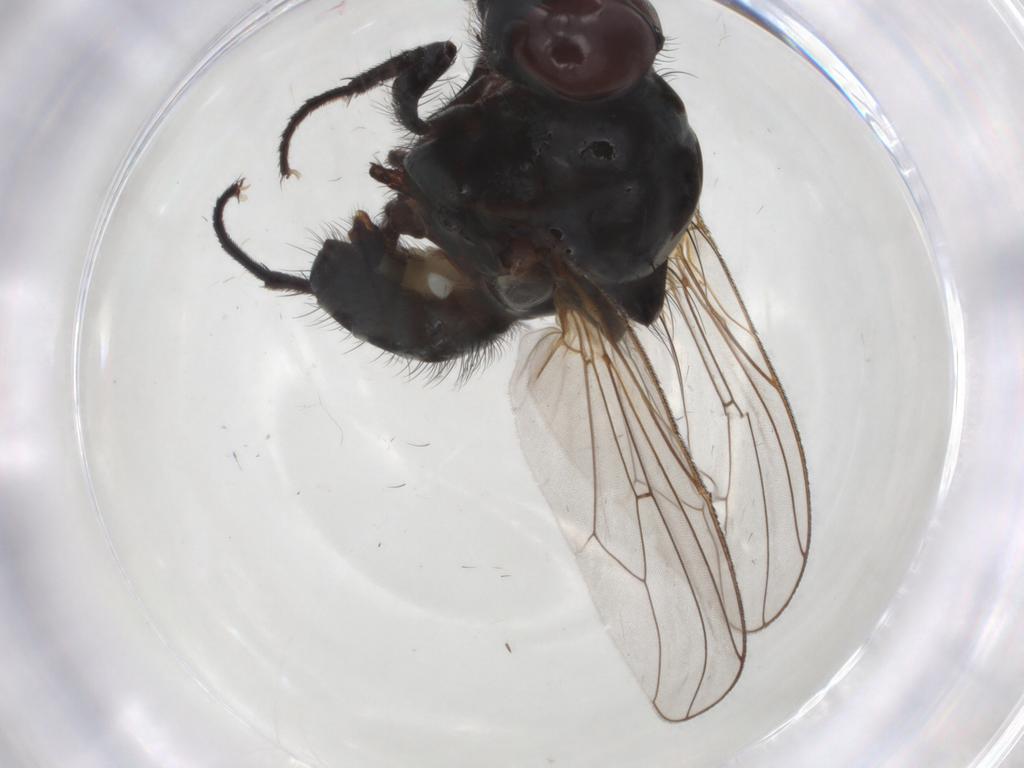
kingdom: Animalia
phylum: Arthropoda
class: Insecta
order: Diptera
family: Anthomyiidae
